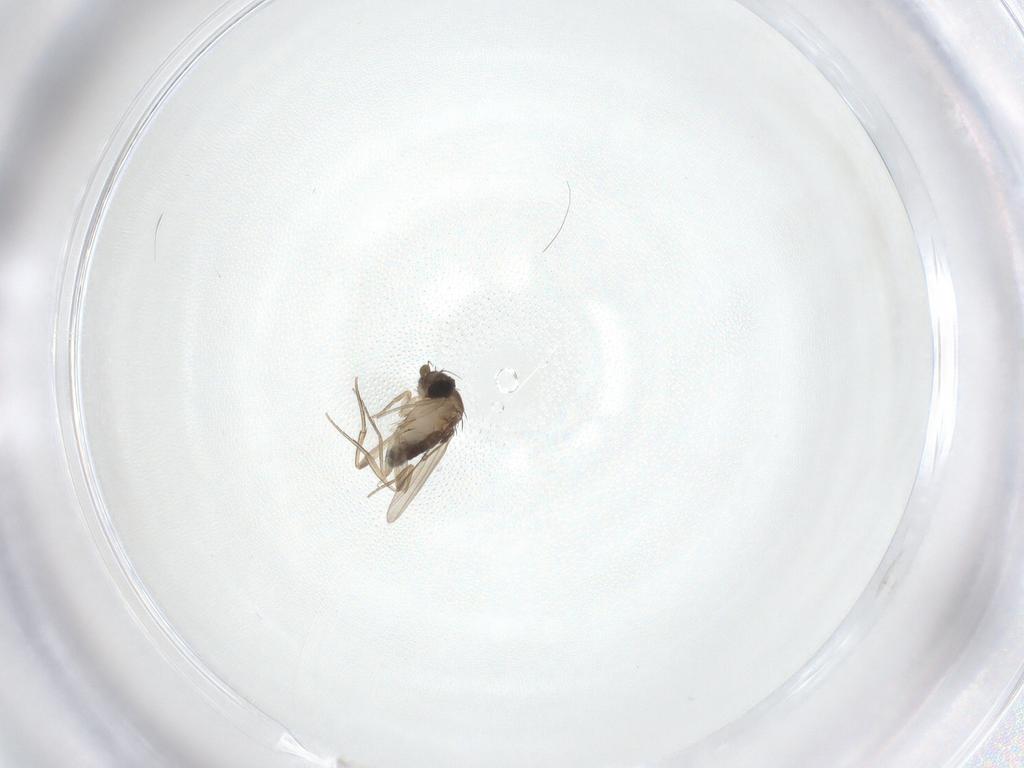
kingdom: Animalia
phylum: Arthropoda
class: Insecta
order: Diptera
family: Phoridae
